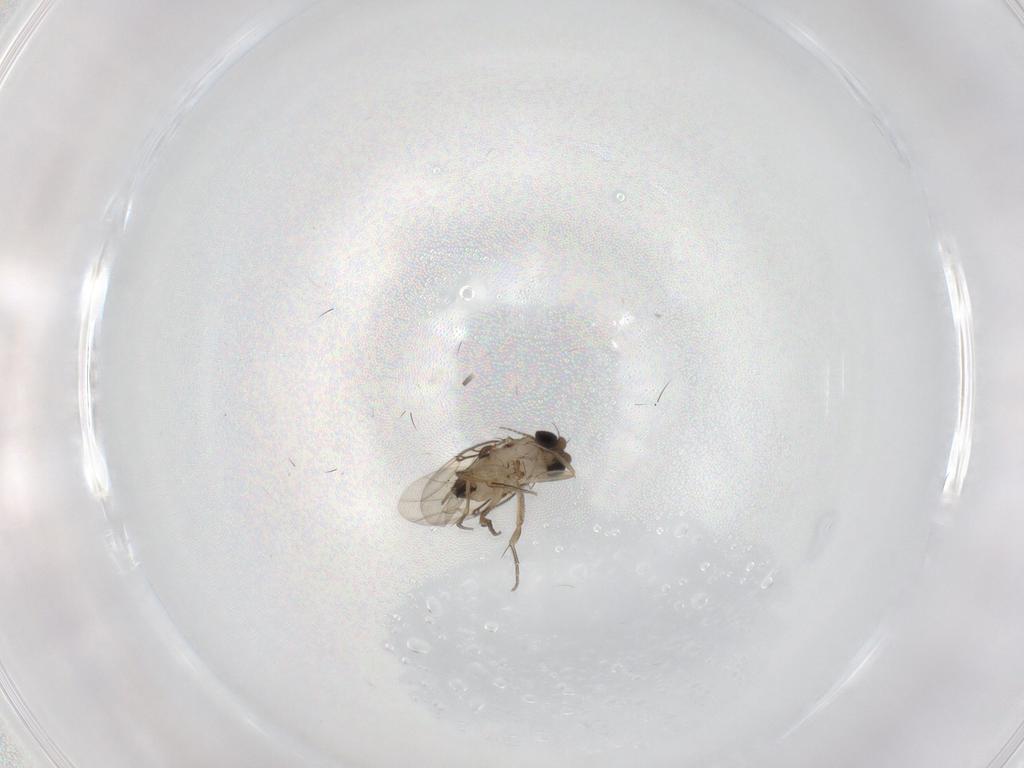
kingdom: Animalia
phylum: Arthropoda
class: Insecta
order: Diptera
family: Phoridae
